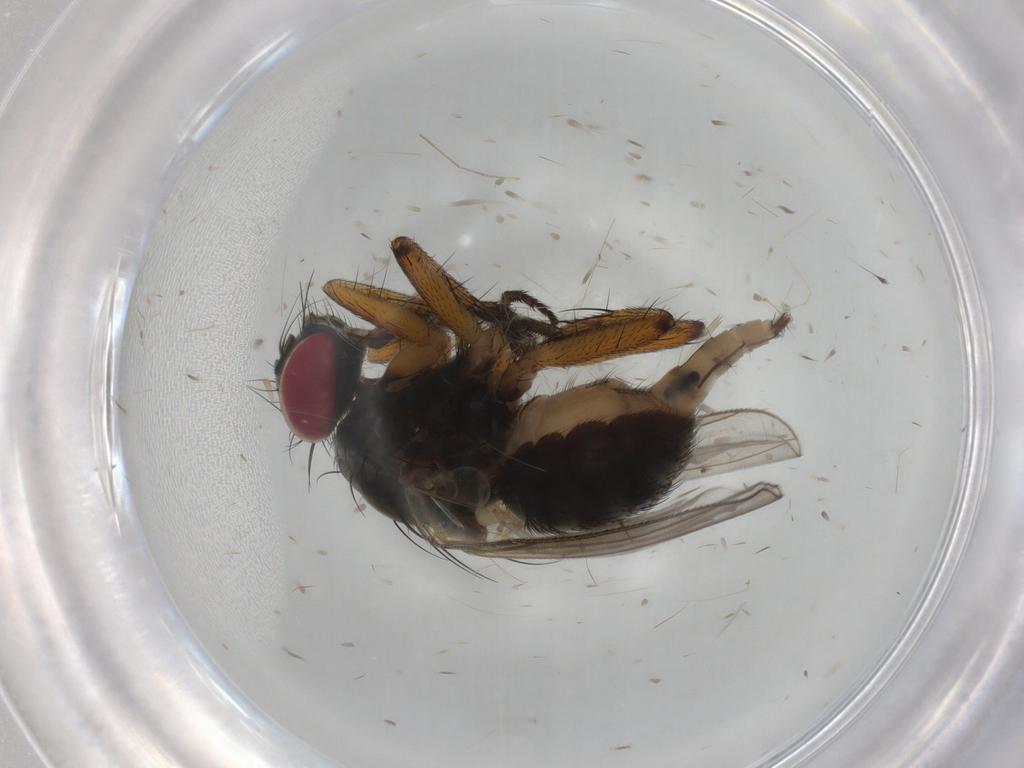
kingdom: Animalia
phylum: Arthropoda
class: Insecta
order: Diptera
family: Muscidae
